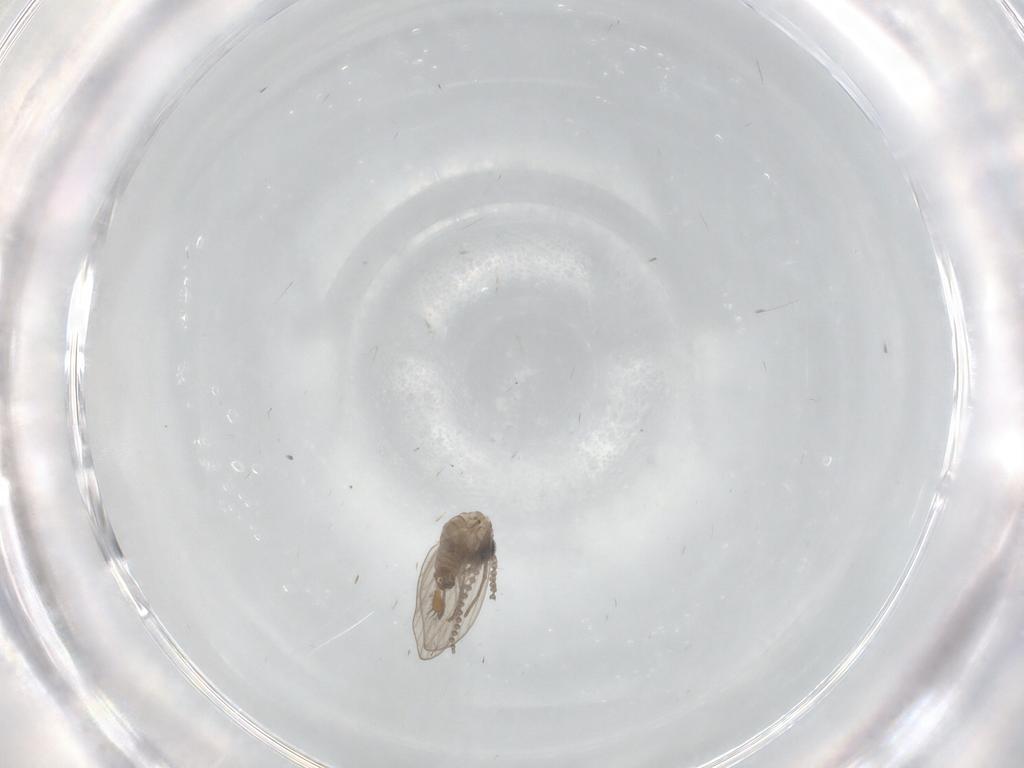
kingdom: Animalia
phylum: Arthropoda
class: Insecta
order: Diptera
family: Phoridae
